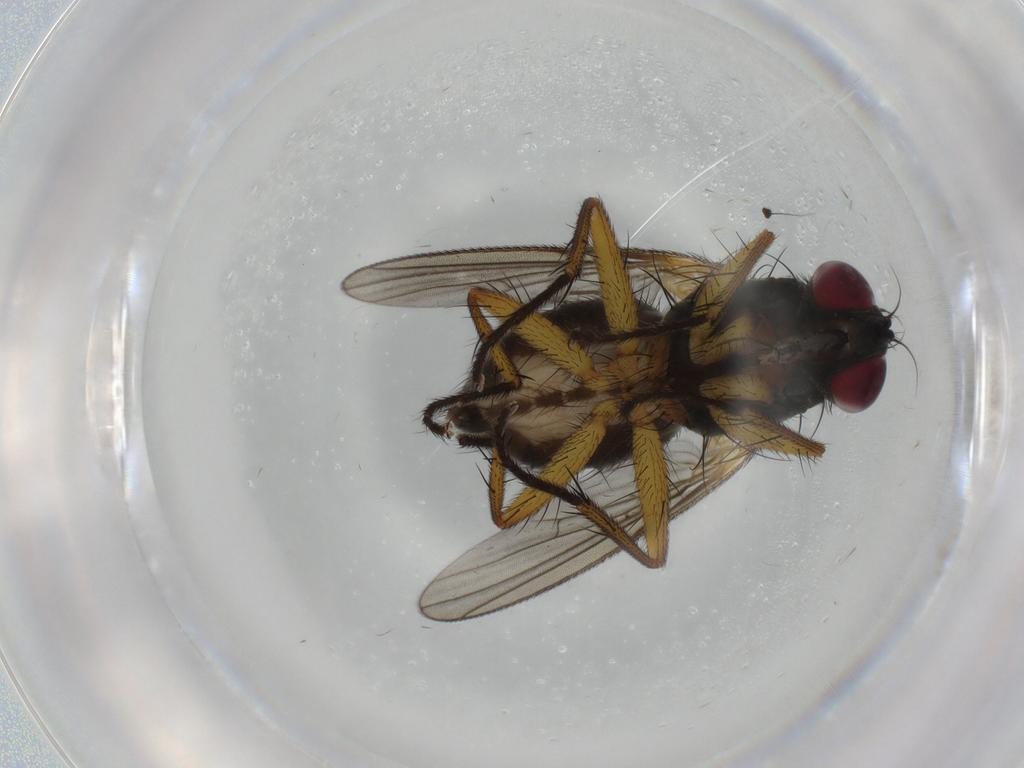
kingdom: Animalia
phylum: Arthropoda
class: Insecta
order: Diptera
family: Muscidae
